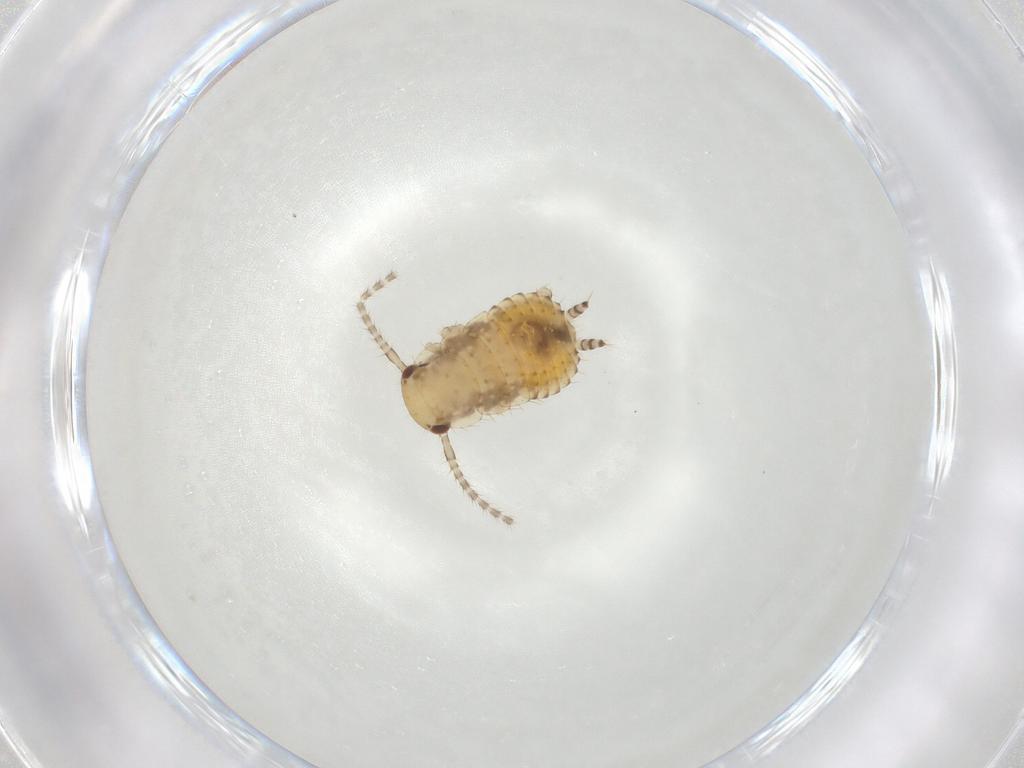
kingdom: Animalia
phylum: Arthropoda
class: Insecta
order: Blattodea
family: Ectobiidae
